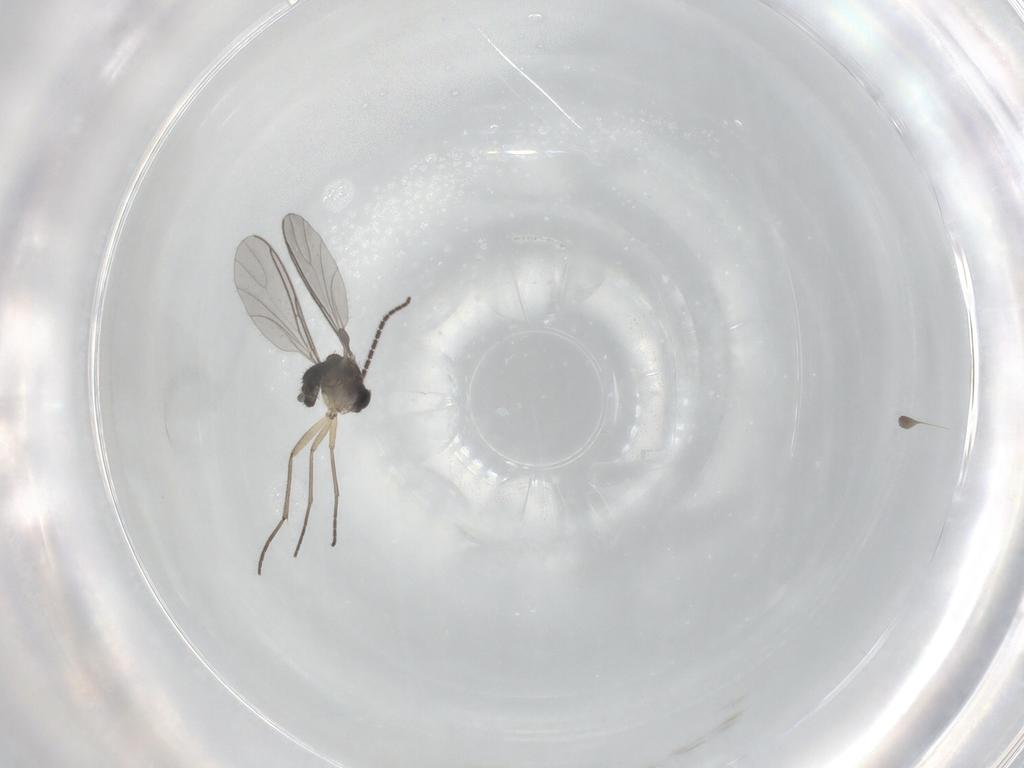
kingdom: Animalia
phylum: Arthropoda
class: Insecta
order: Diptera
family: Sciaridae
